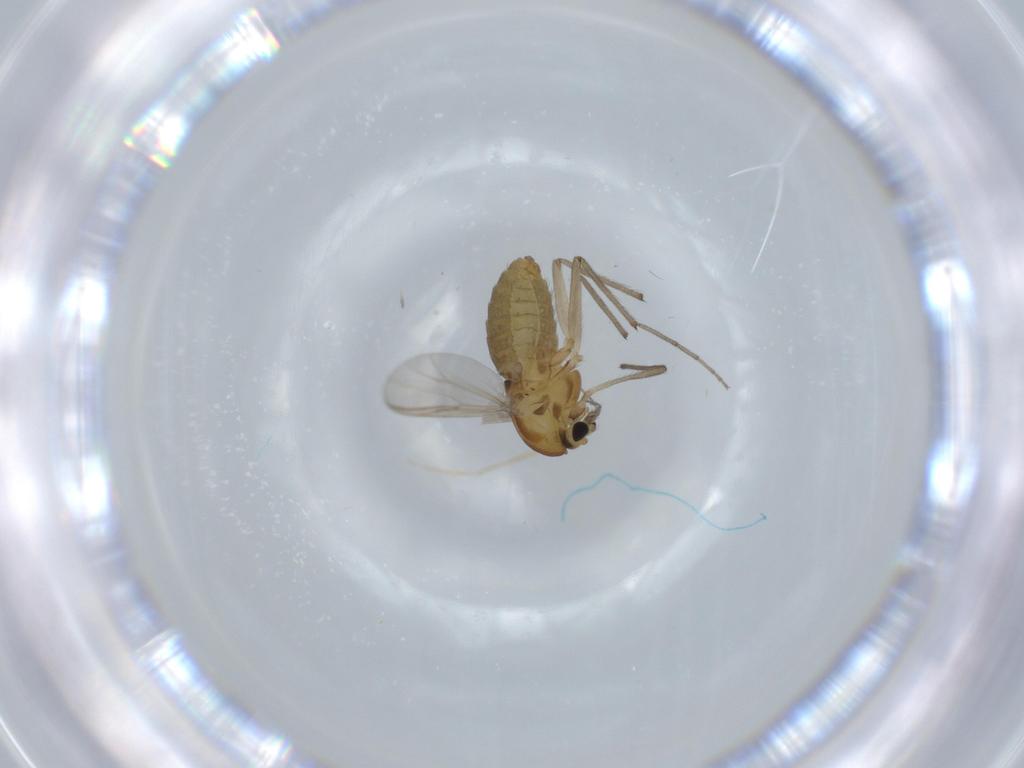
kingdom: Animalia
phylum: Arthropoda
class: Insecta
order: Diptera
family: Chironomidae
